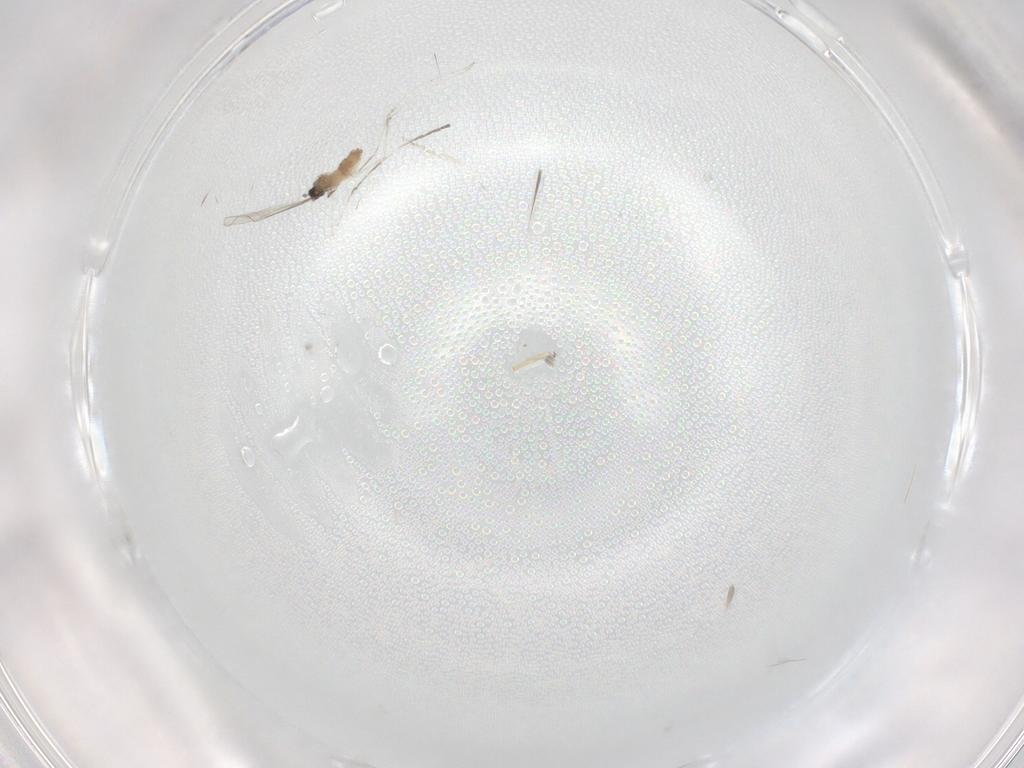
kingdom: Animalia
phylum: Arthropoda
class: Insecta
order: Diptera
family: Cecidomyiidae
